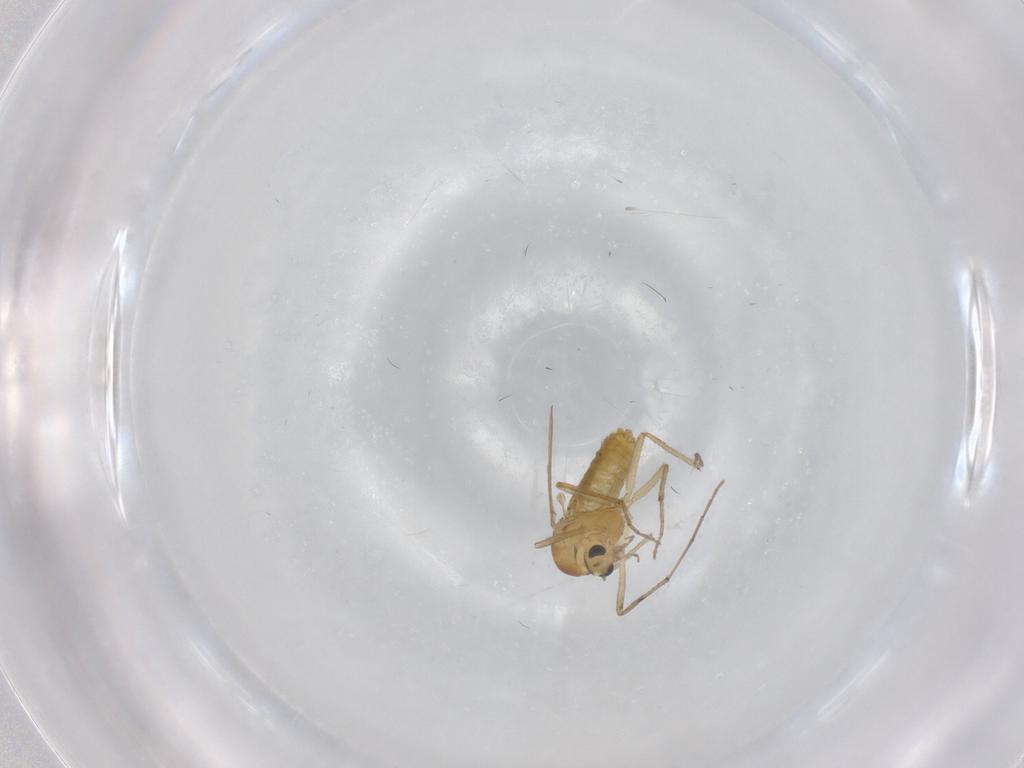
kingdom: Animalia
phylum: Arthropoda
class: Insecta
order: Diptera
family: Chironomidae
